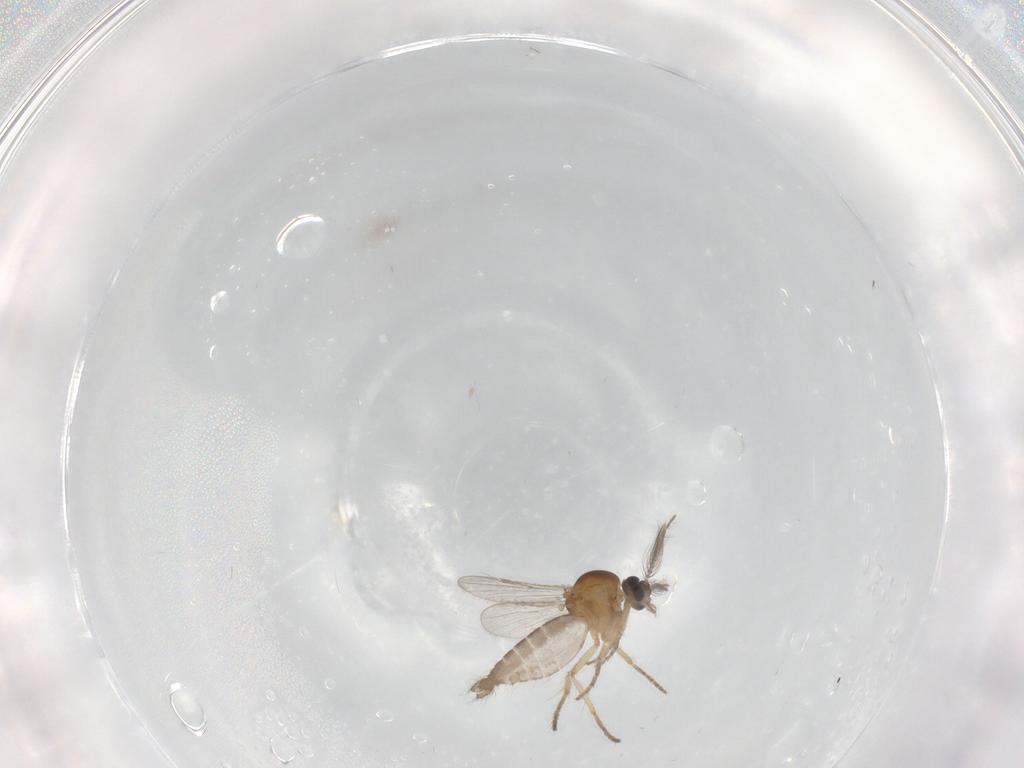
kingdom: Animalia
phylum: Arthropoda
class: Insecta
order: Diptera
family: Ceratopogonidae
